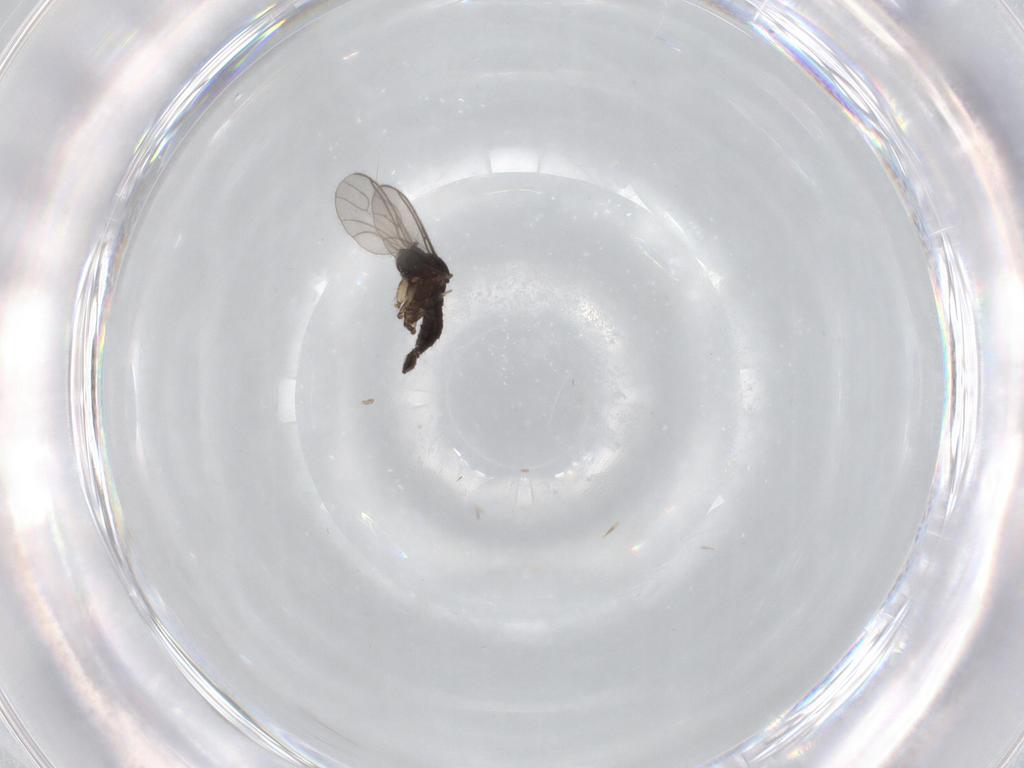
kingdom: Animalia
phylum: Arthropoda
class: Insecta
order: Diptera
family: Sciaridae
